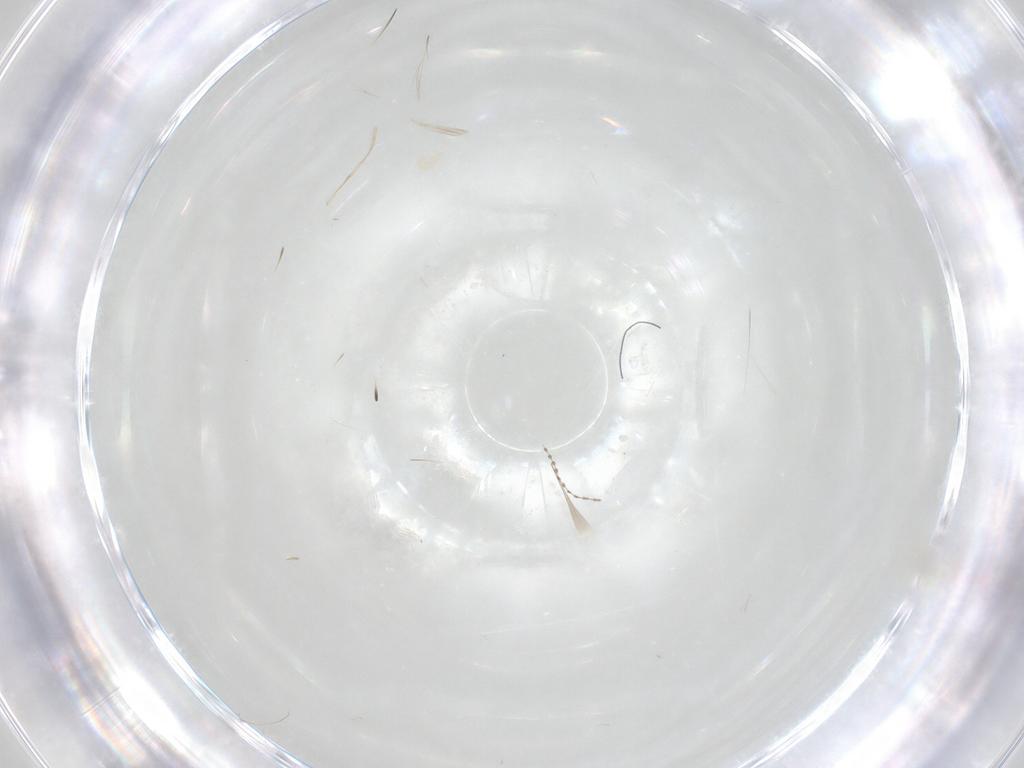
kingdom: Animalia
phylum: Arthropoda
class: Insecta
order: Hymenoptera
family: Trichogrammatidae
